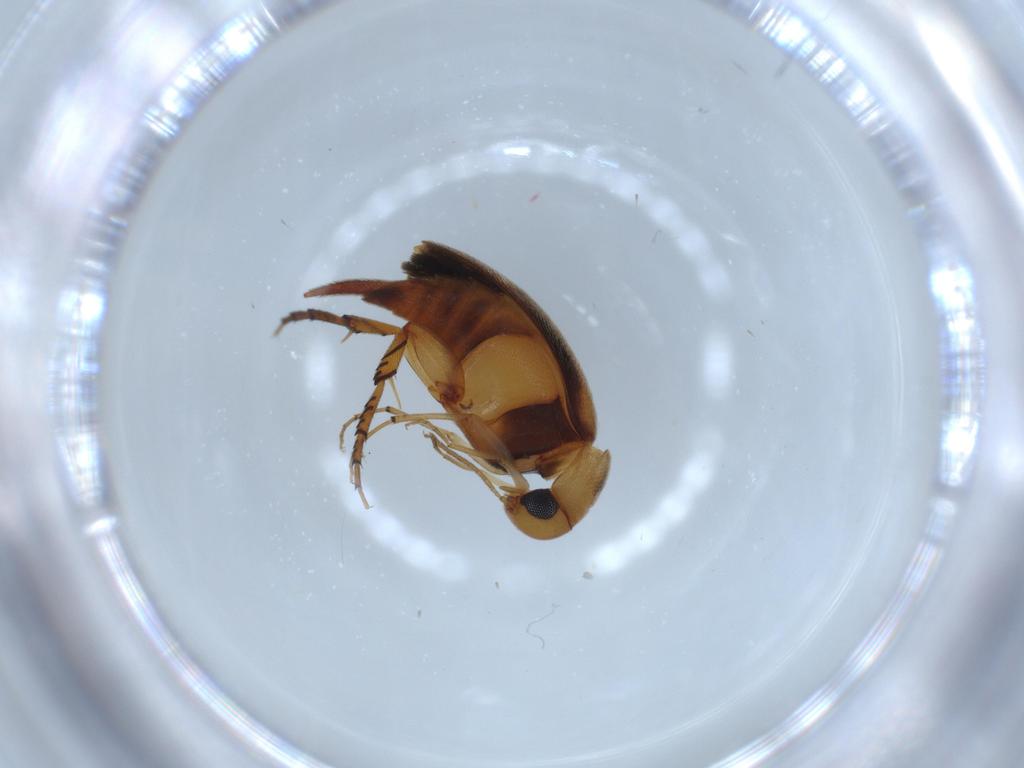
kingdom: Animalia
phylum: Arthropoda
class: Insecta
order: Coleoptera
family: Mordellidae
